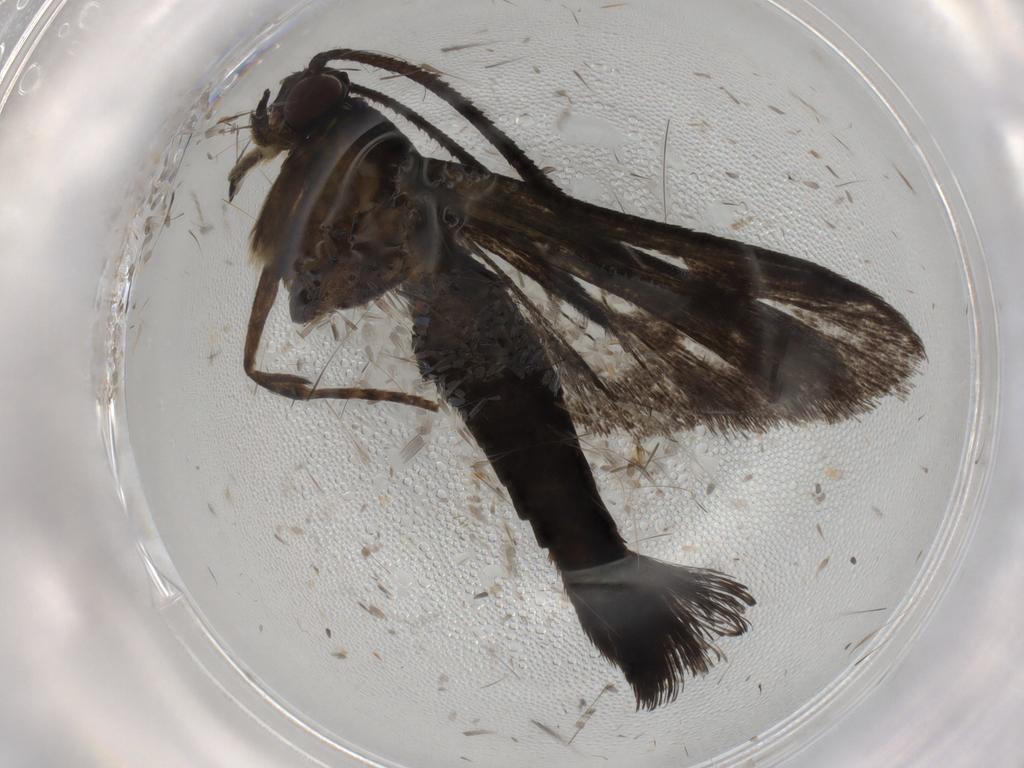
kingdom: Animalia
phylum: Arthropoda
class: Insecta
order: Lepidoptera
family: Sesiidae
